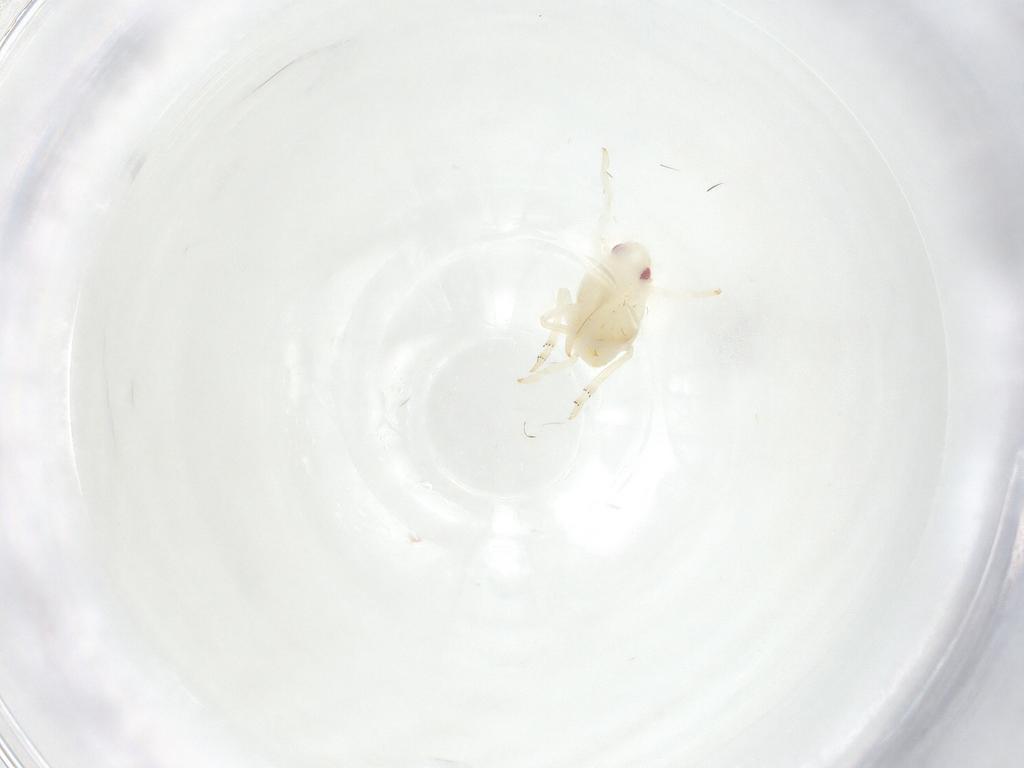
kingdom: Animalia
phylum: Arthropoda
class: Insecta
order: Hemiptera
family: Flatidae
